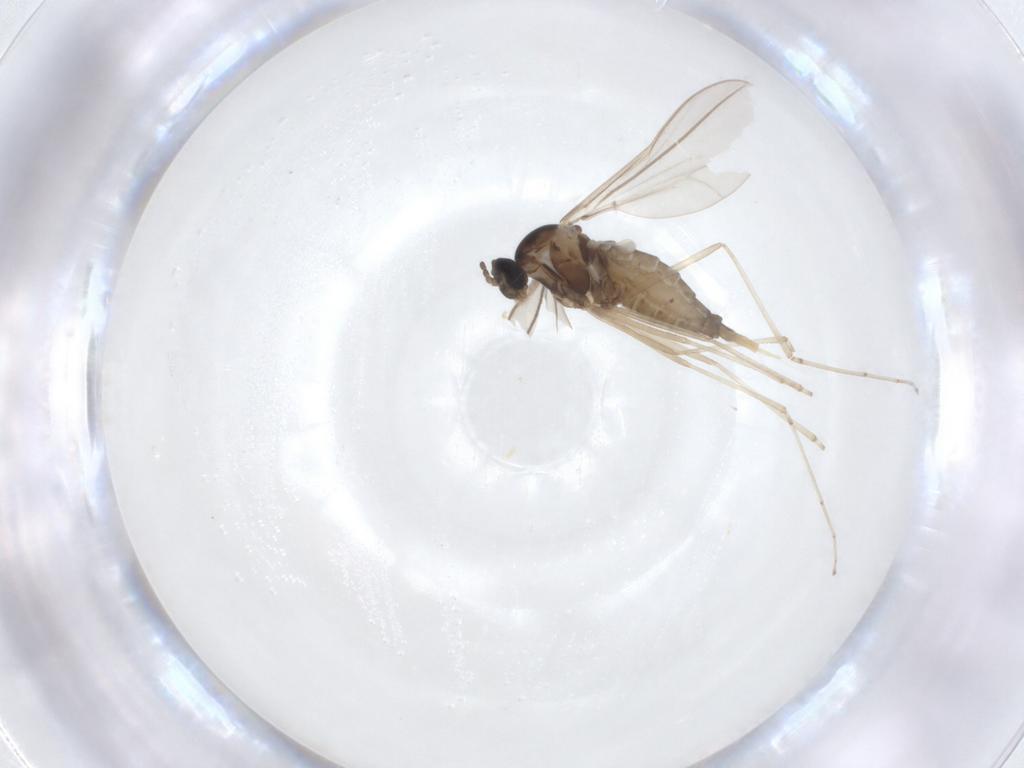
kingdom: Animalia
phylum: Arthropoda
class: Insecta
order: Diptera
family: Cecidomyiidae
